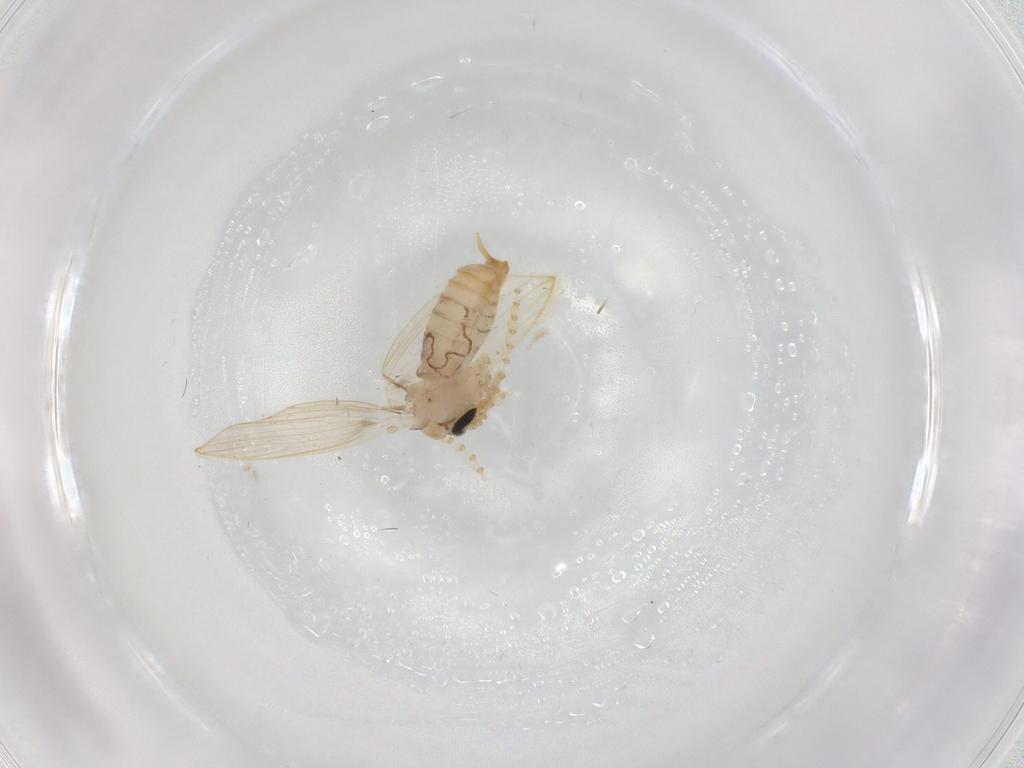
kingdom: Animalia
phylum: Arthropoda
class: Insecta
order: Diptera
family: Psychodidae
